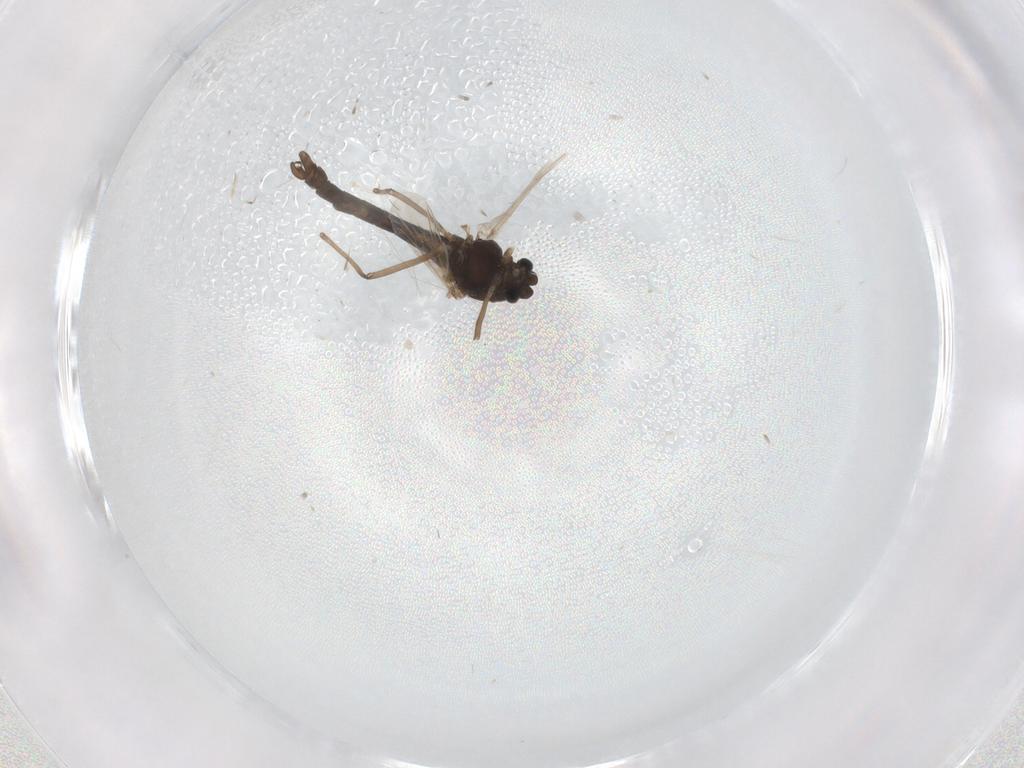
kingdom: Animalia
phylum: Arthropoda
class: Insecta
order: Diptera
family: Chironomidae
